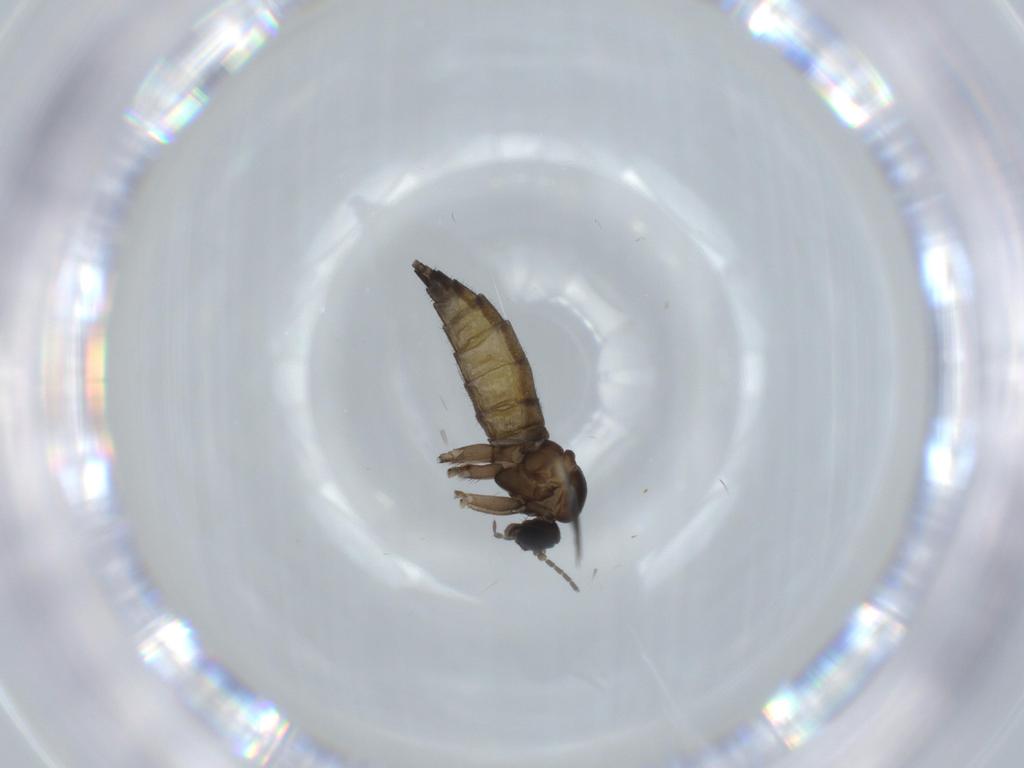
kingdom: Animalia
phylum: Arthropoda
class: Insecta
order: Diptera
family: Sciaridae
